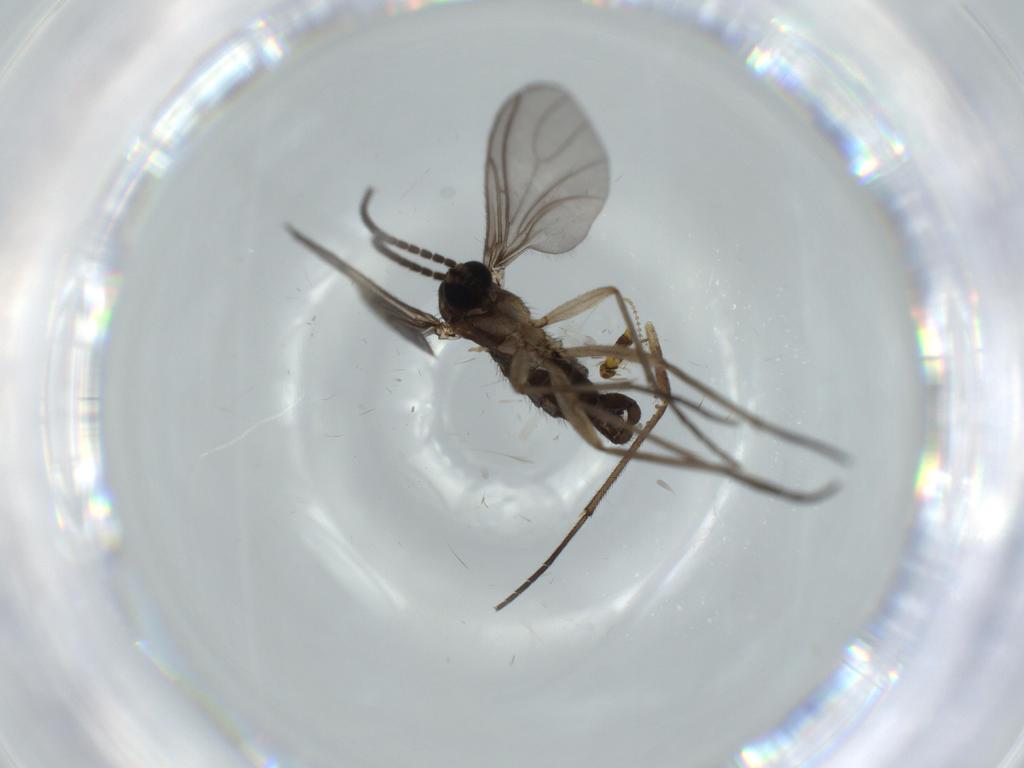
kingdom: Animalia
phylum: Arthropoda
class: Insecta
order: Diptera
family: Sciaridae
